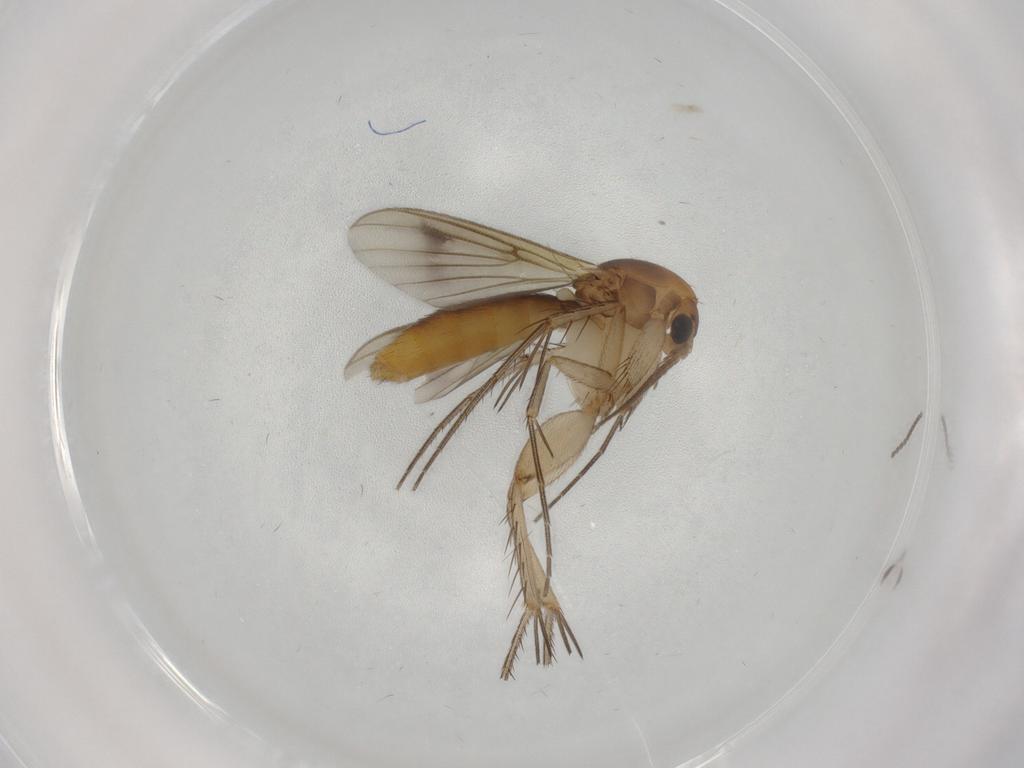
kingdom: Animalia
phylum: Arthropoda
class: Insecta
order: Diptera
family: Mycetophilidae
